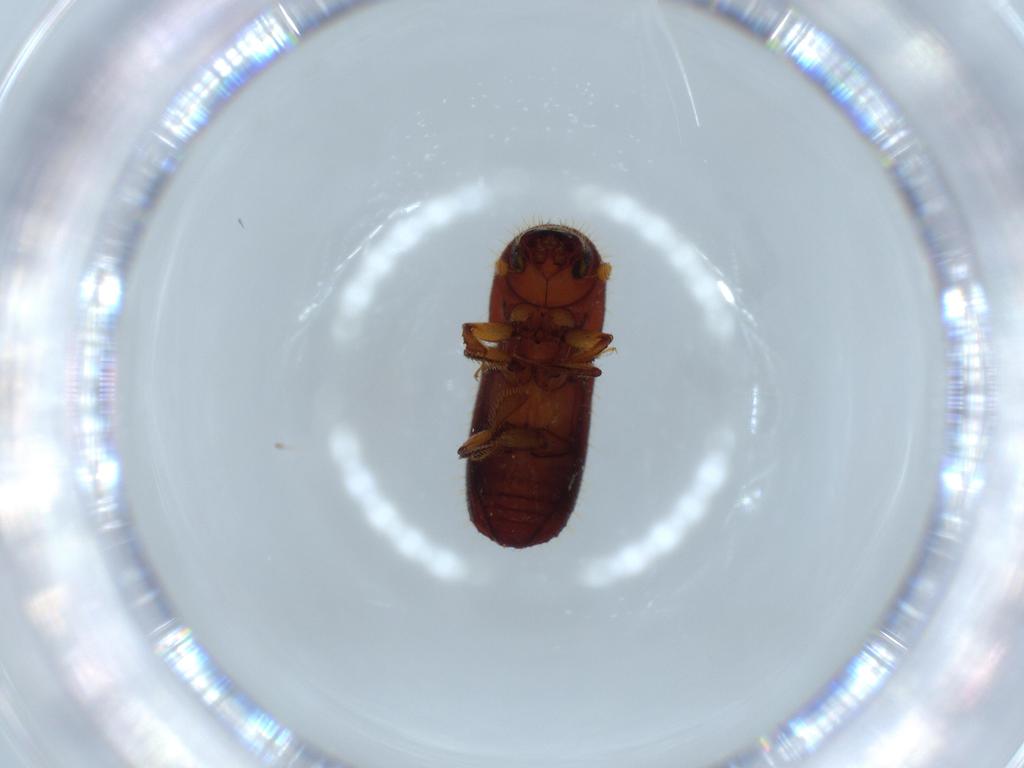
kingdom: Animalia
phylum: Arthropoda
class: Insecta
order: Coleoptera
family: Curculionidae
